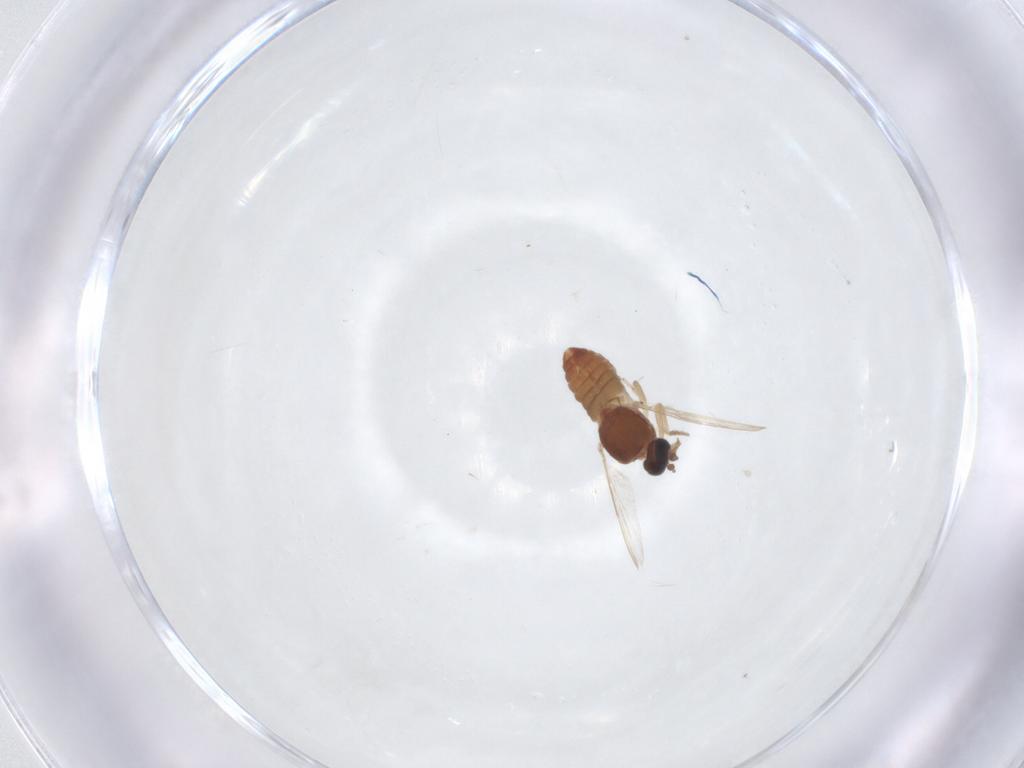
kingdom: Animalia
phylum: Arthropoda
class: Insecta
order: Diptera
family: Ceratopogonidae
